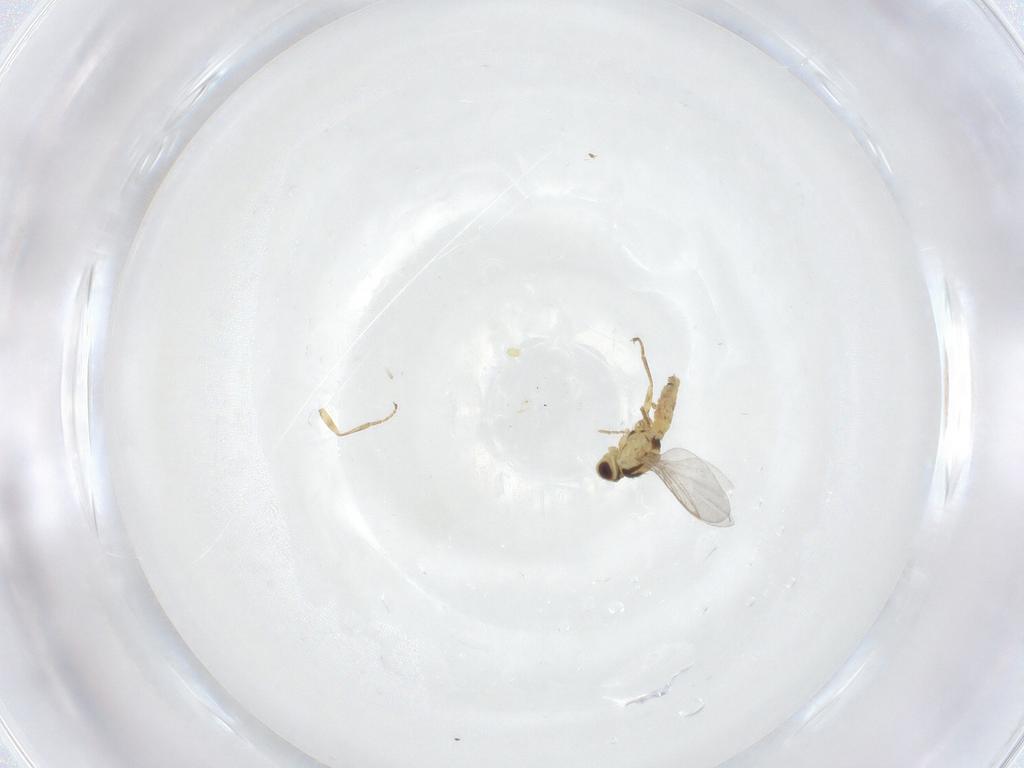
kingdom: Animalia
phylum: Arthropoda
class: Insecta
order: Diptera
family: Agromyzidae
